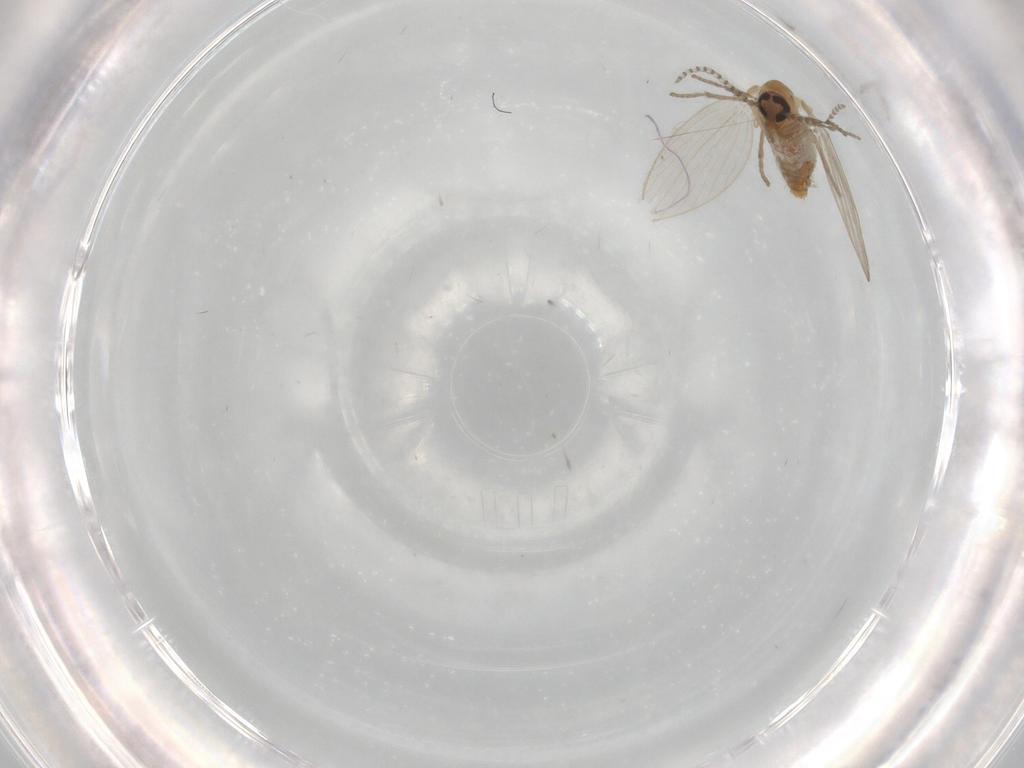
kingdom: Animalia
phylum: Arthropoda
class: Insecta
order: Diptera
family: Psychodidae
